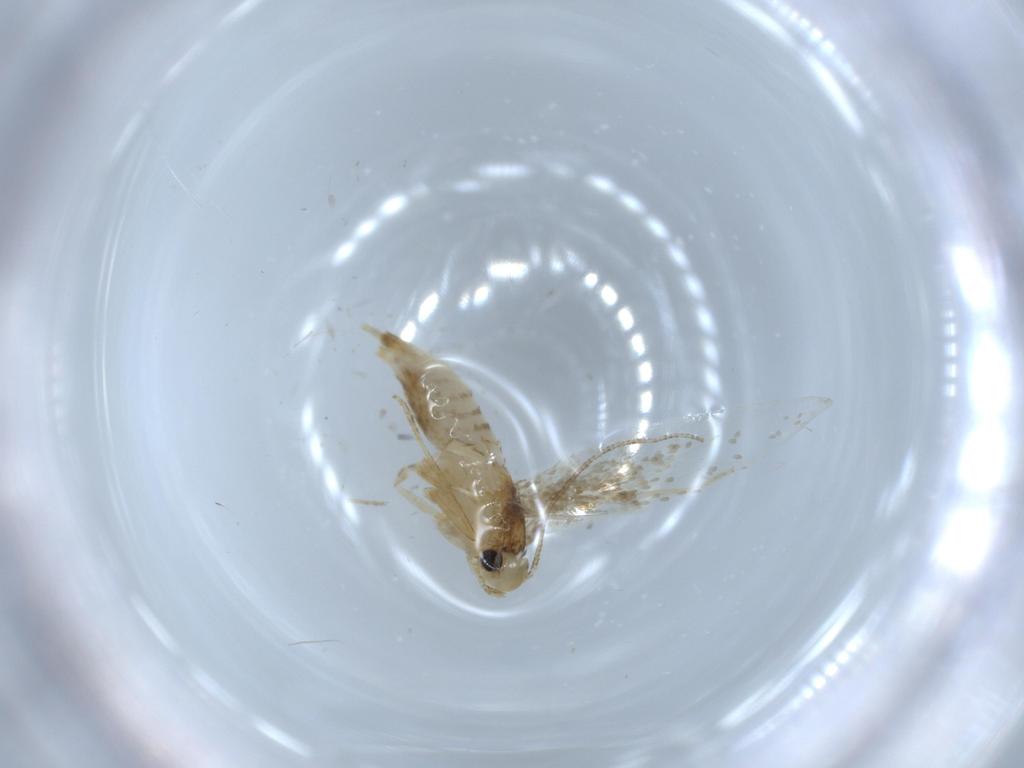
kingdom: Animalia
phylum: Arthropoda
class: Insecta
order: Lepidoptera
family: Tineidae
